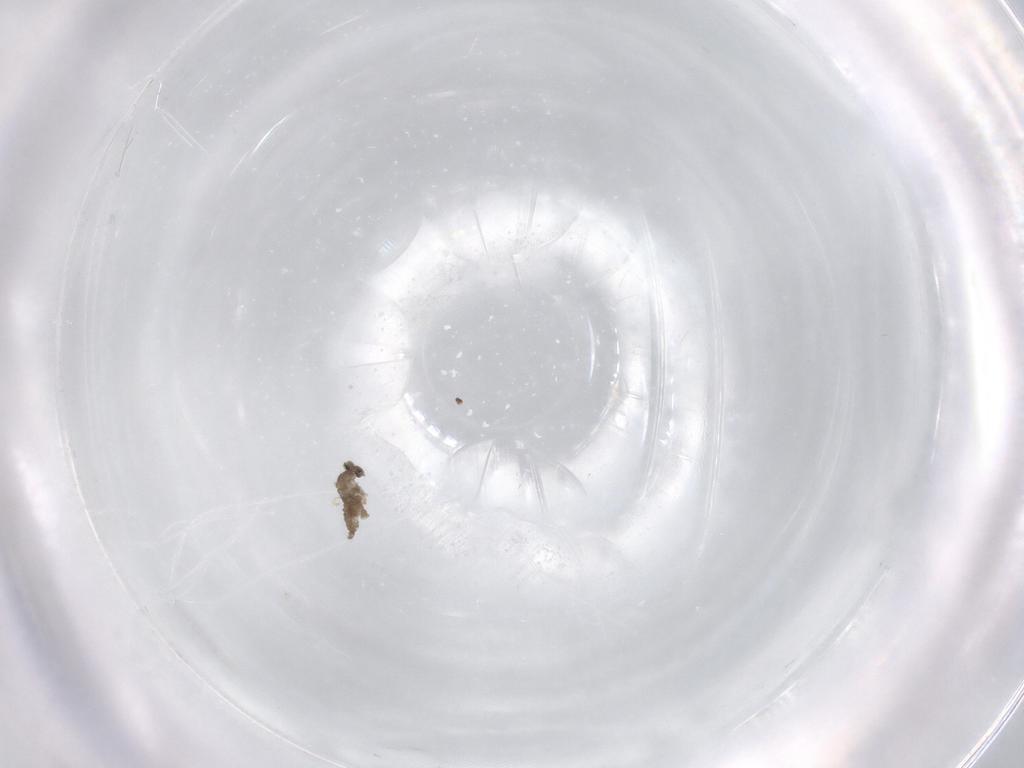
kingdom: Animalia
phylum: Arthropoda
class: Insecta
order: Diptera
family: Cecidomyiidae
